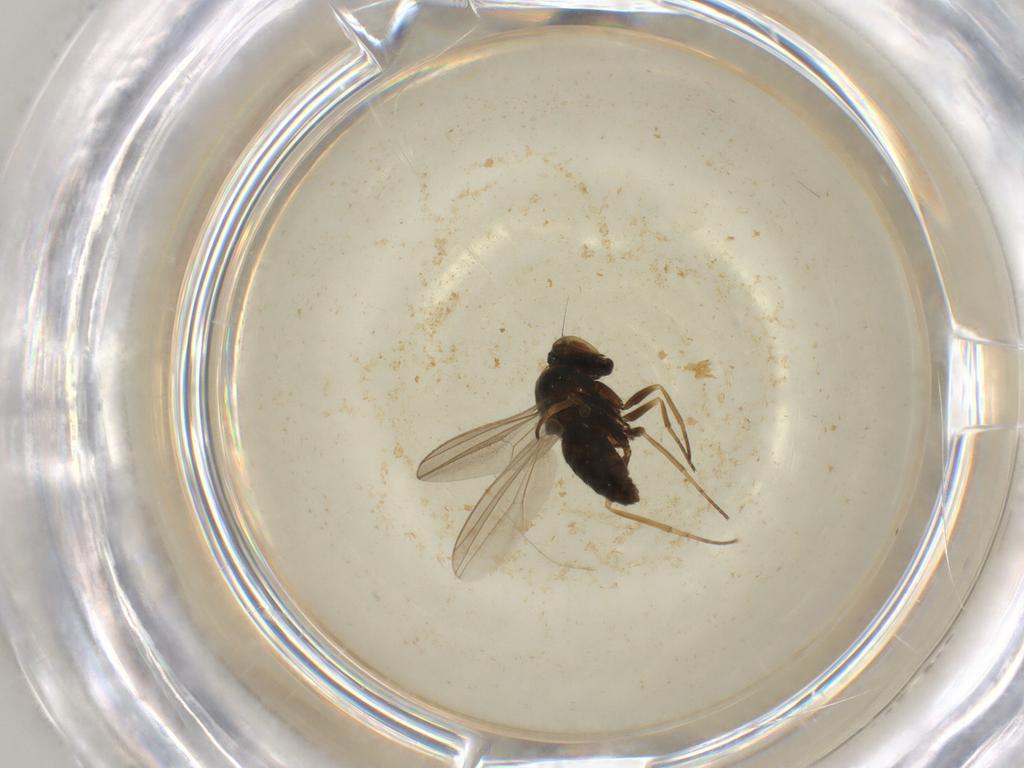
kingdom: Animalia
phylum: Arthropoda
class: Insecta
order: Diptera
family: Dolichopodidae
